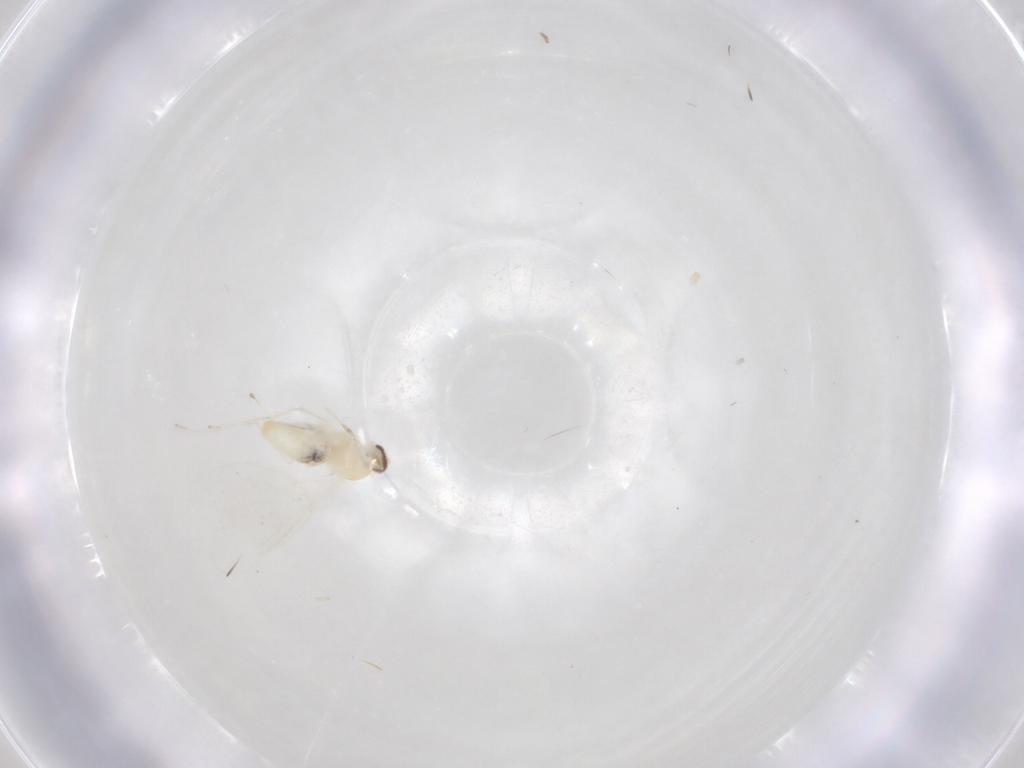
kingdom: Animalia
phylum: Arthropoda
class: Insecta
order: Diptera
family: Cecidomyiidae
